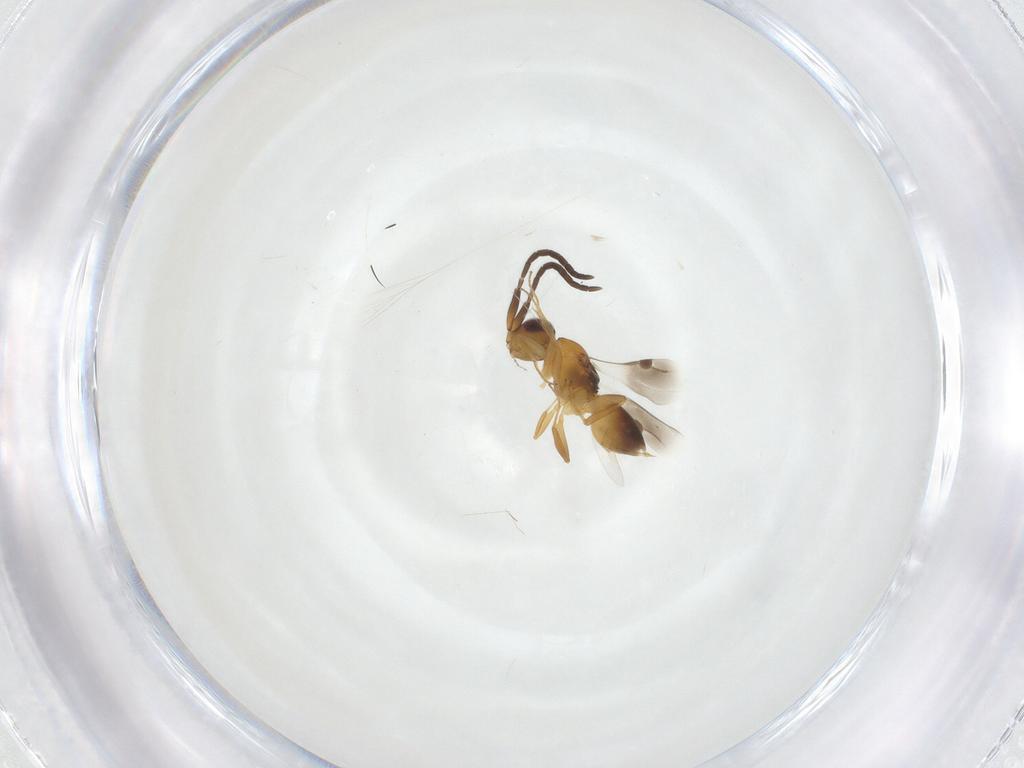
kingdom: Animalia
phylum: Arthropoda
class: Insecta
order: Hymenoptera
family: Megaspilidae
